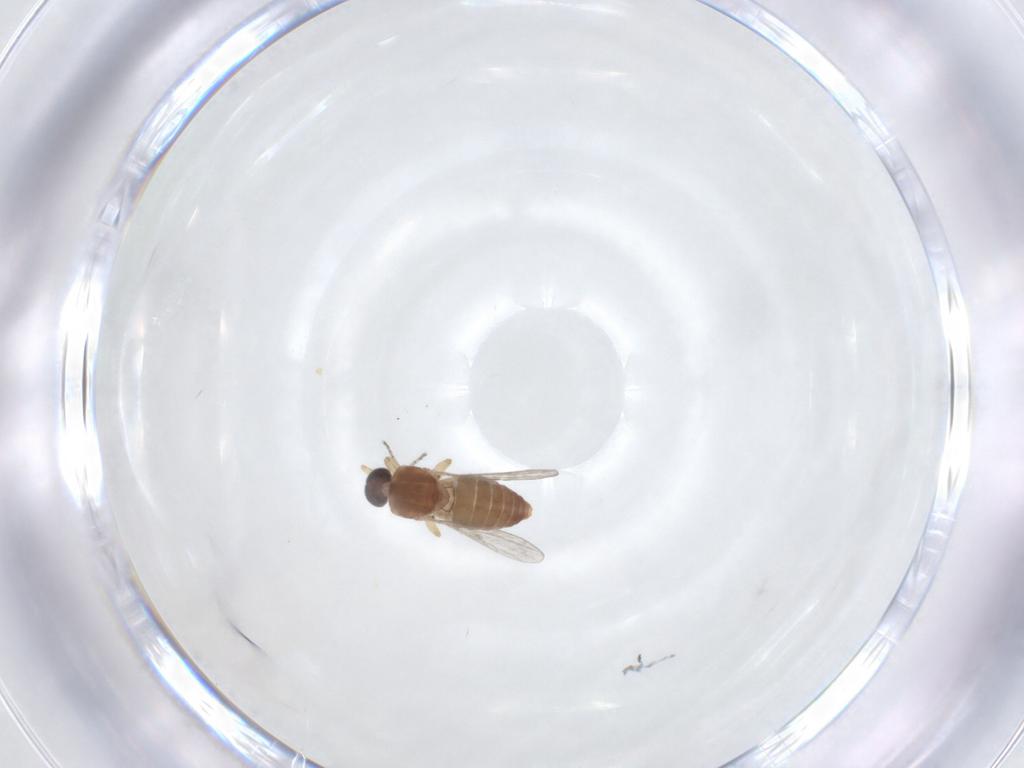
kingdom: Animalia
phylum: Arthropoda
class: Insecta
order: Diptera
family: Ceratopogonidae
